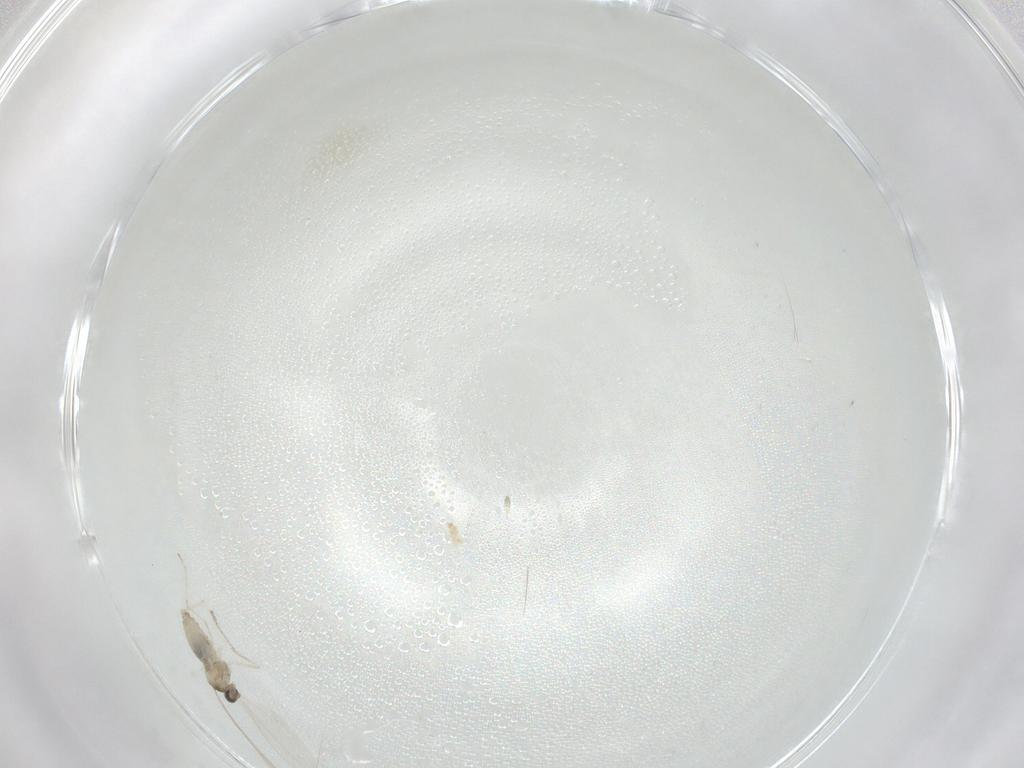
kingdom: Animalia
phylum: Arthropoda
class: Insecta
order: Diptera
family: Cecidomyiidae
